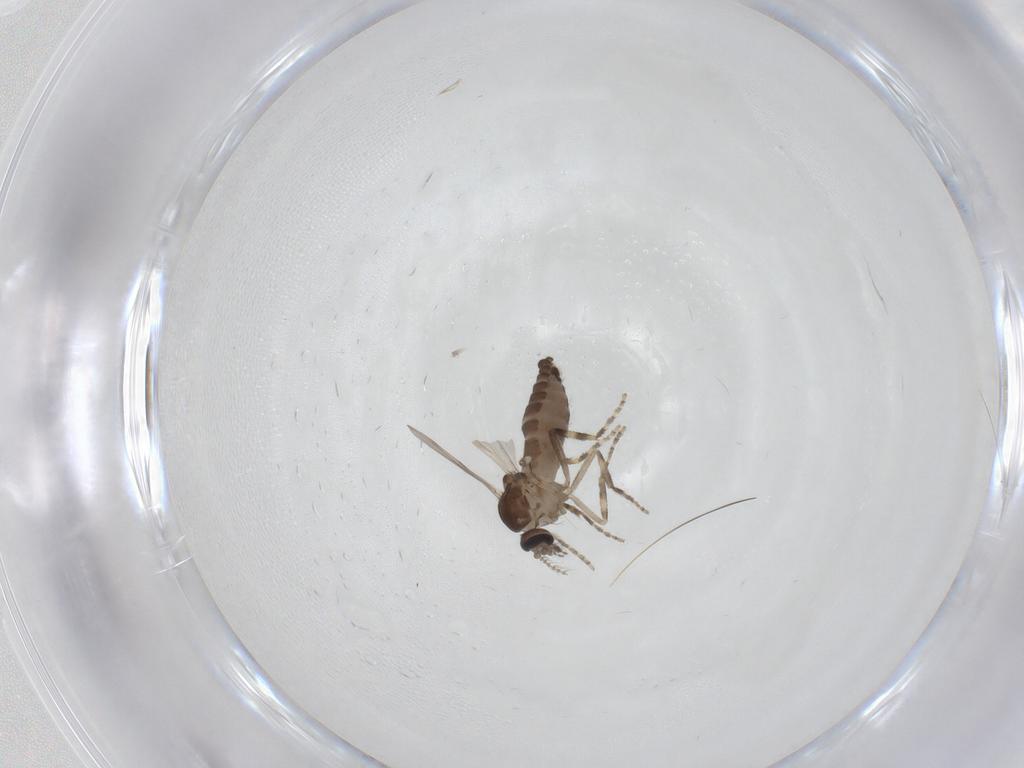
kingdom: Animalia
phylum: Arthropoda
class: Insecta
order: Diptera
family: Ceratopogonidae
